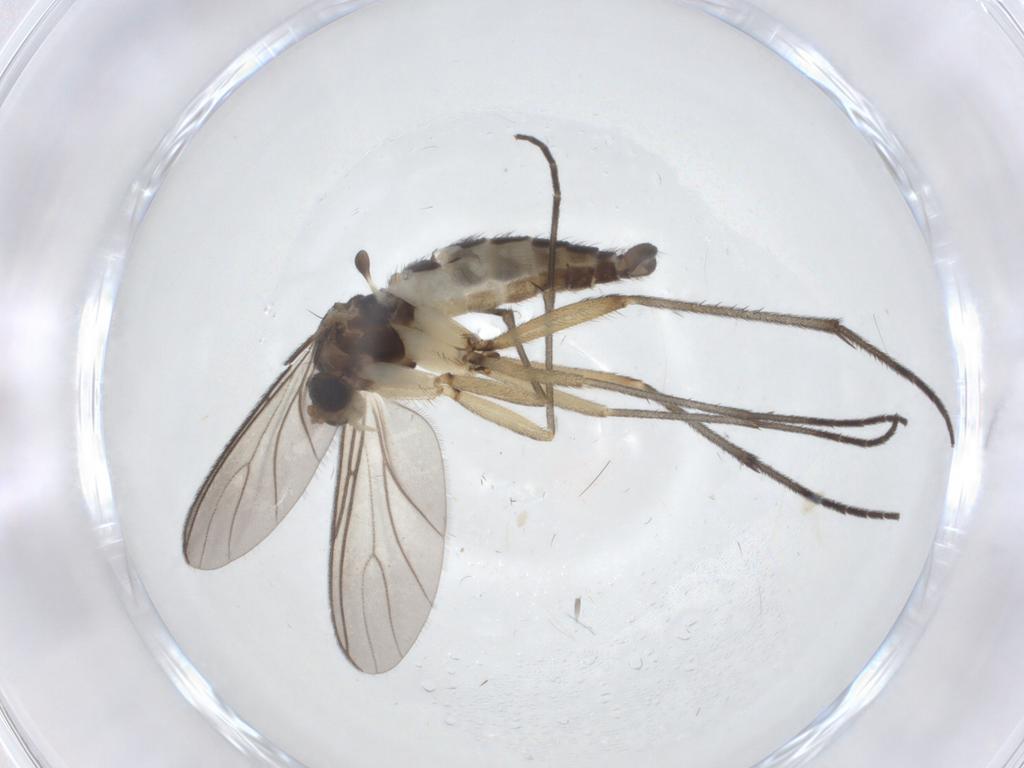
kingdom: Animalia
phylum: Arthropoda
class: Insecta
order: Diptera
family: Sciaridae
